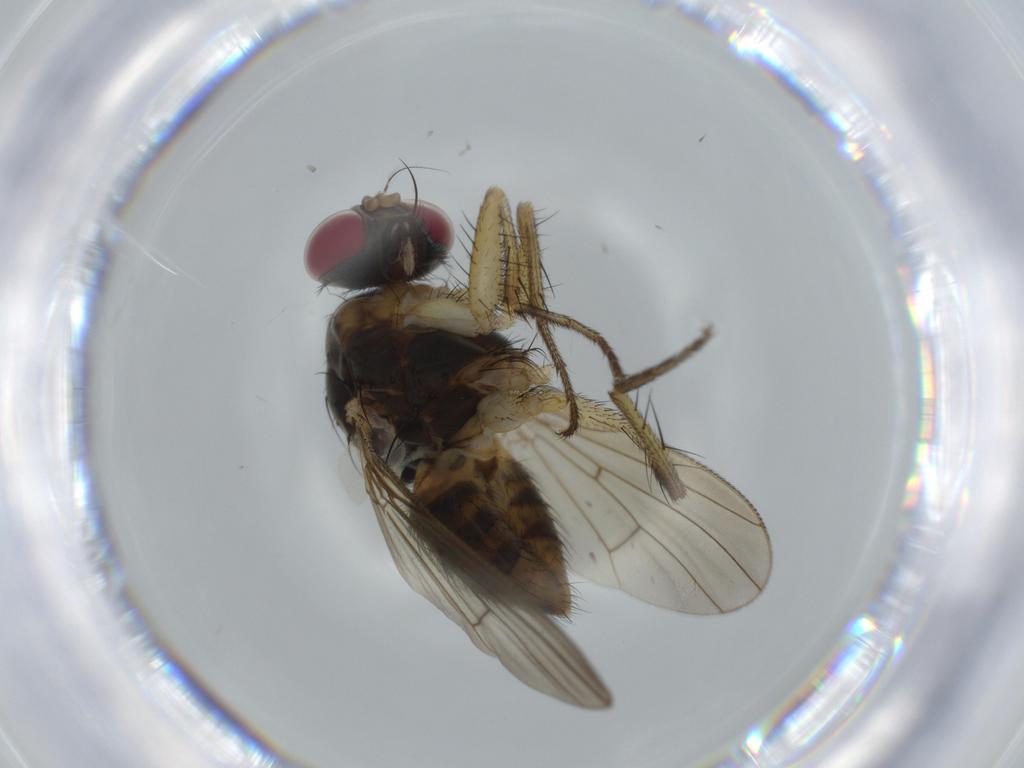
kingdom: Animalia
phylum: Arthropoda
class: Insecta
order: Diptera
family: Muscidae
